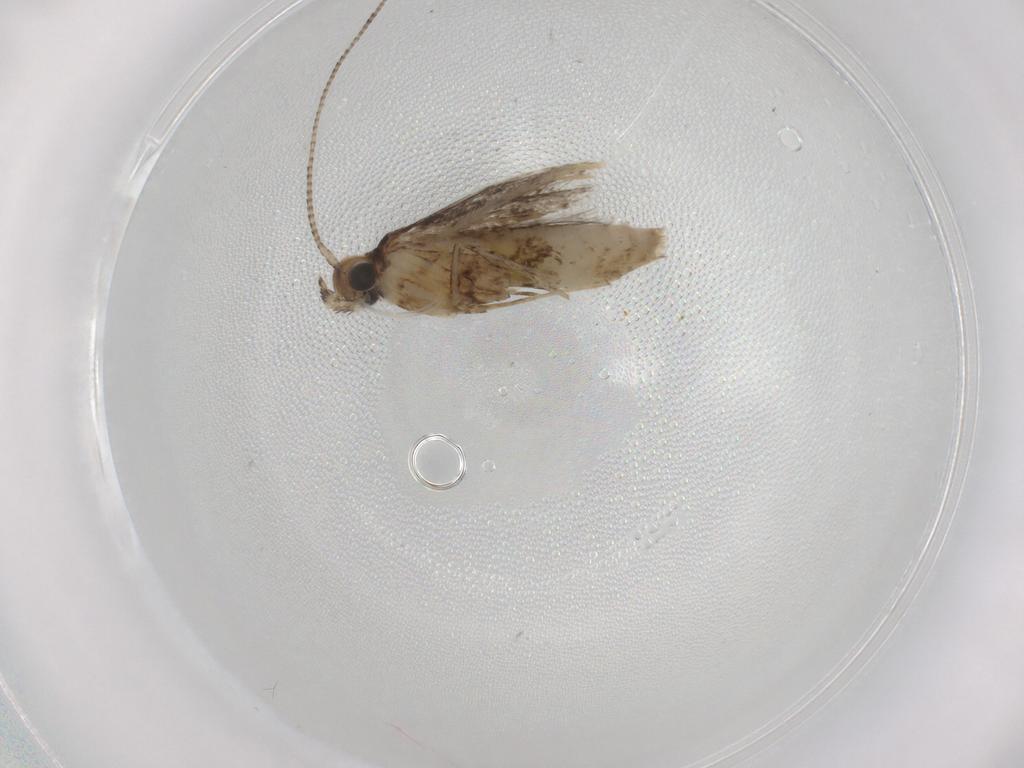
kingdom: Animalia
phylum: Arthropoda
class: Insecta
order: Lepidoptera
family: Gracillariidae
